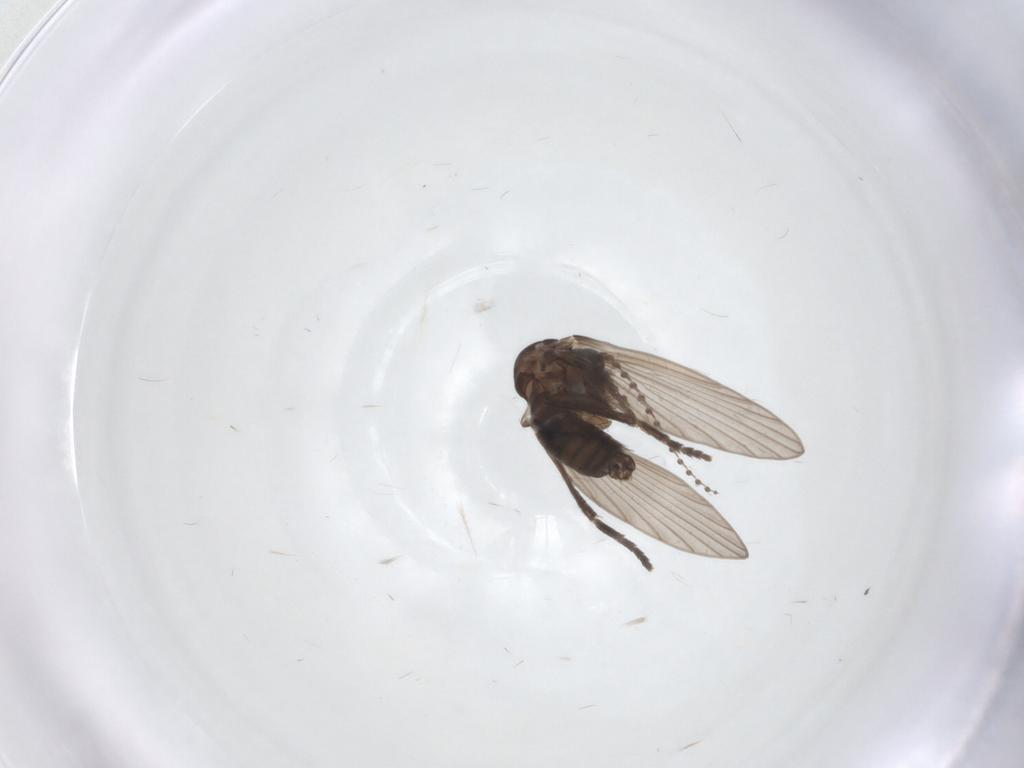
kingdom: Animalia
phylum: Arthropoda
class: Insecta
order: Diptera
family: Psychodidae
